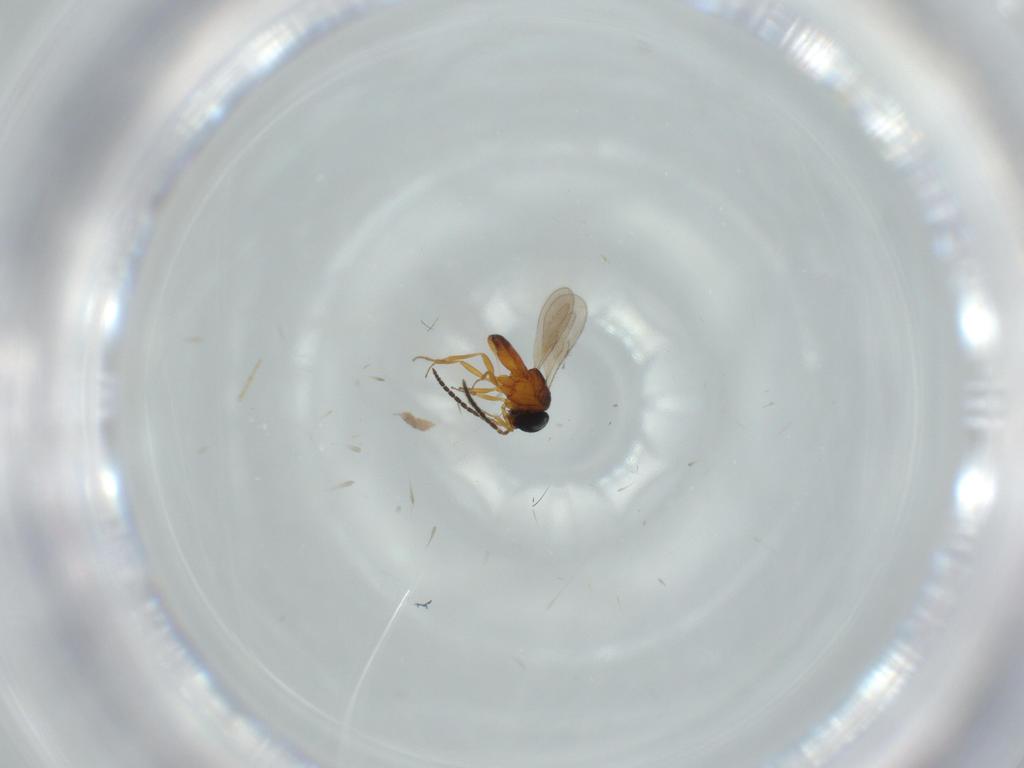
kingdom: Animalia
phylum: Arthropoda
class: Insecta
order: Hymenoptera
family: Scelionidae
